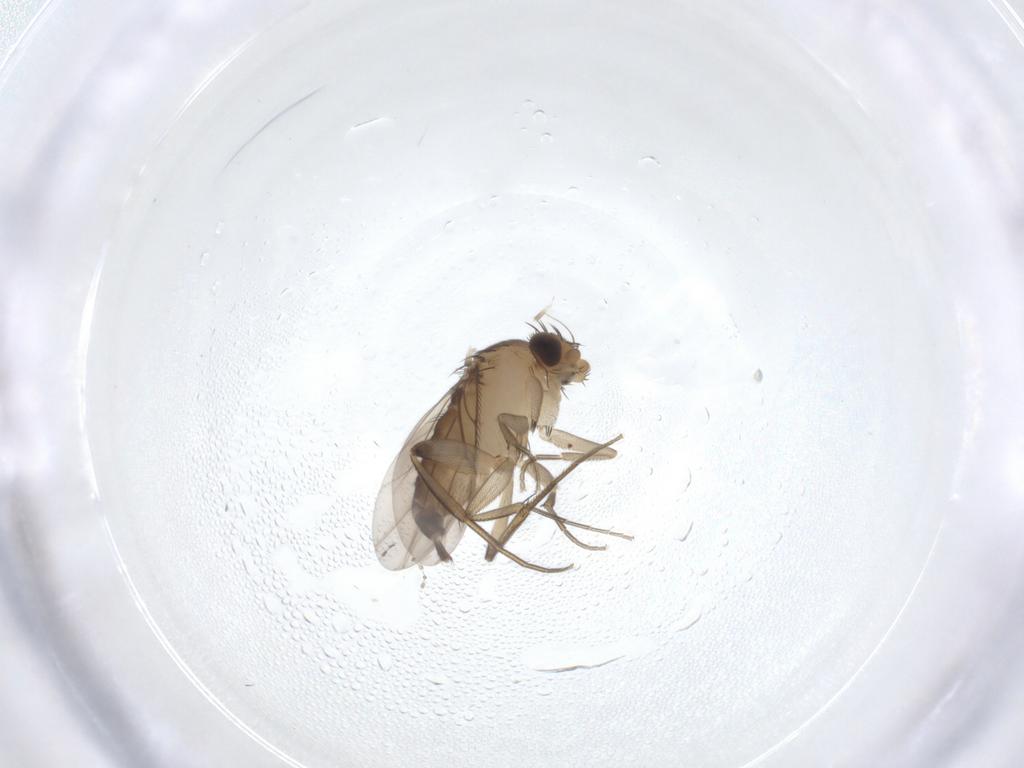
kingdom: Animalia
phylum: Arthropoda
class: Insecta
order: Diptera
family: Phoridae
